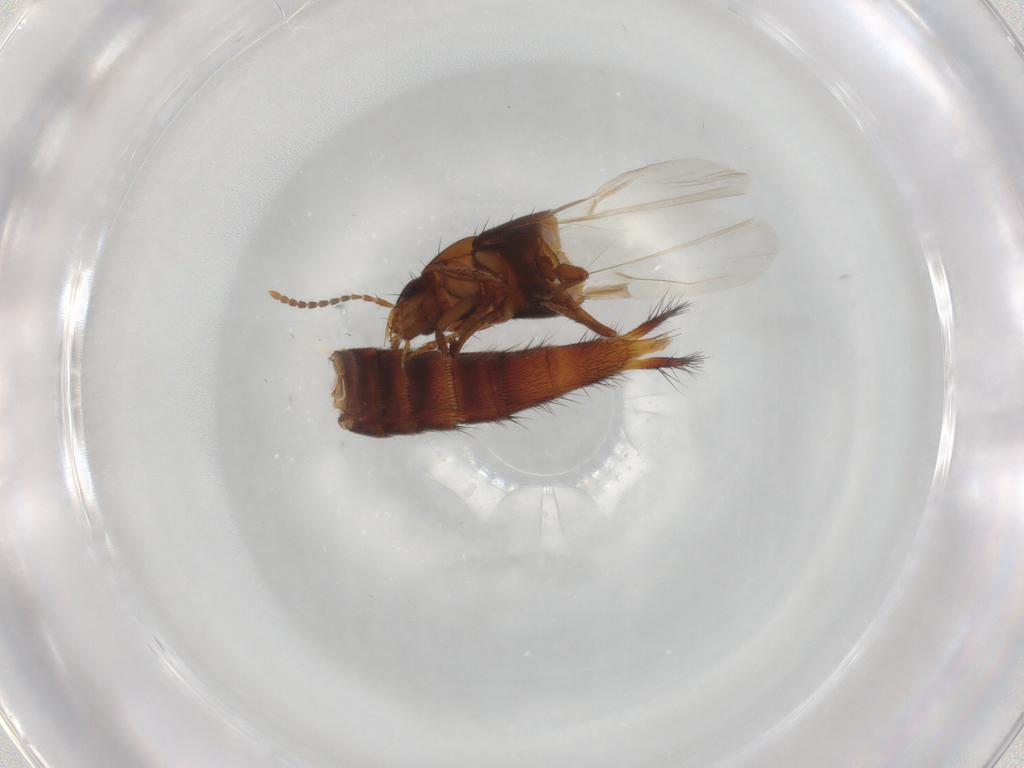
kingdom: Animalia
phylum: Arthropoda
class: Insecta
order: Coleoptera
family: Staphylinidae
